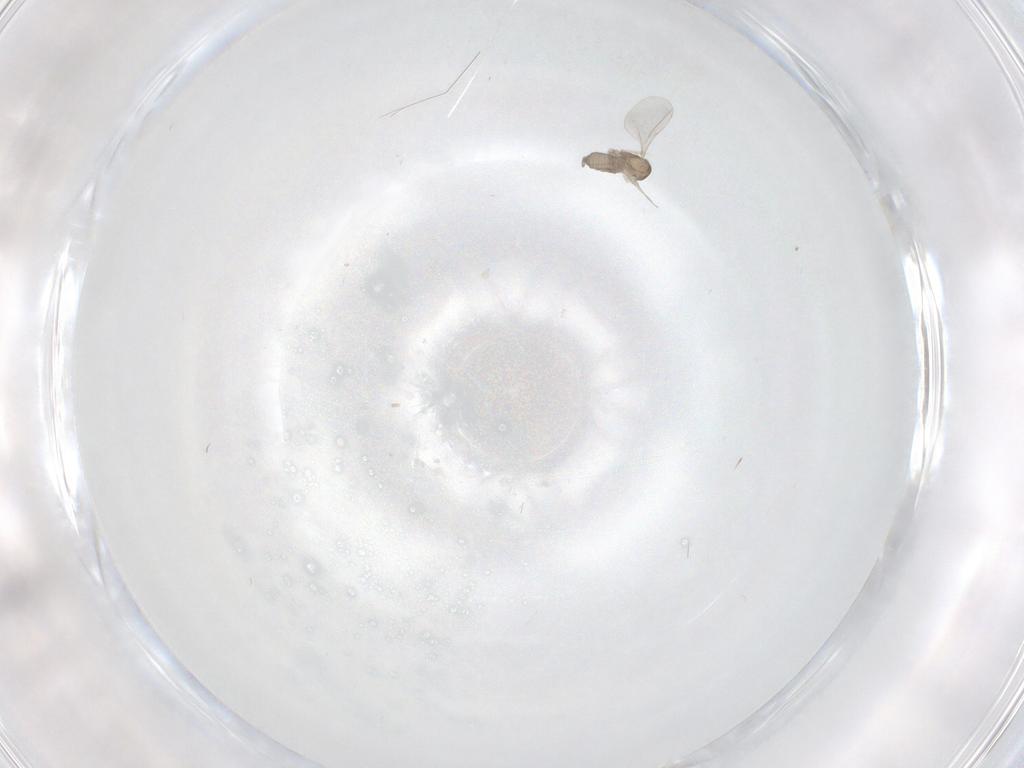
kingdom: Animalia
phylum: Arthropoda
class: Insecta
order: Diptera
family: Cecidomyiidae
